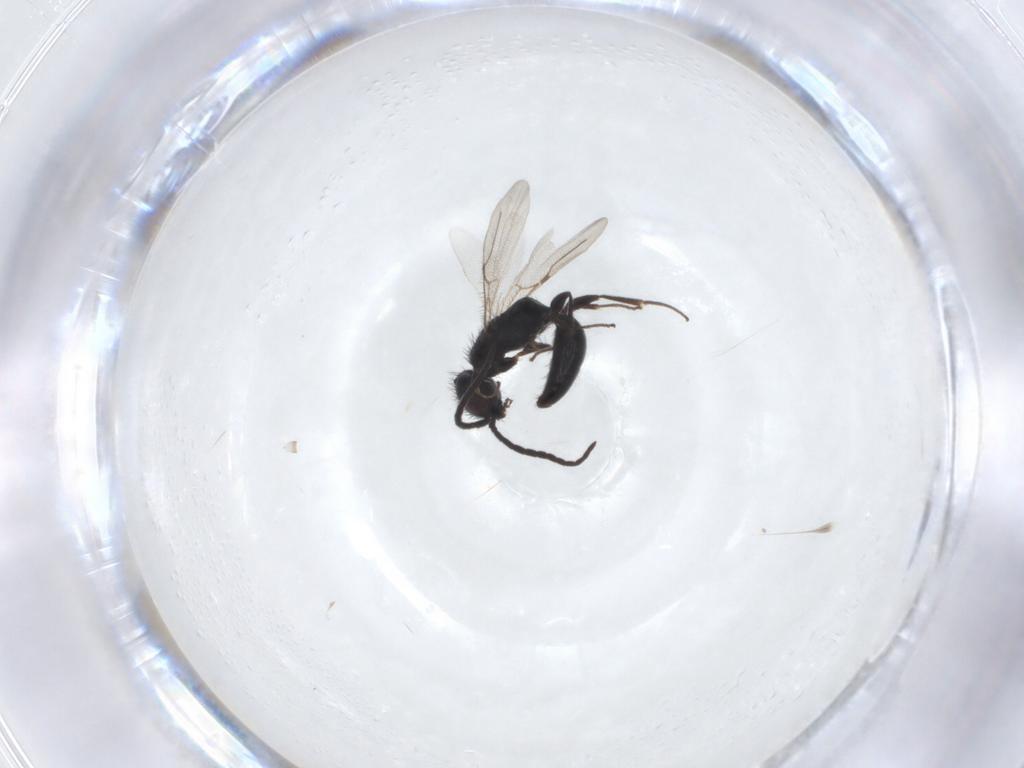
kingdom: Animalia
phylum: Arthropoda
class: Insecta
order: Hymenoptera
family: Bethylidae
